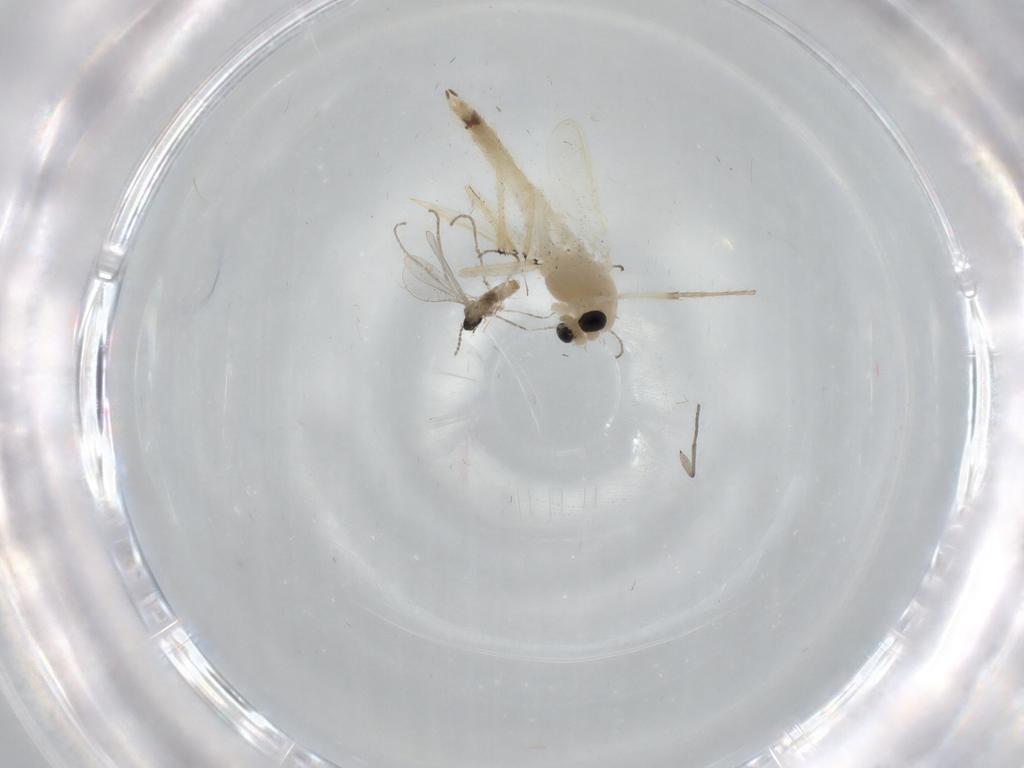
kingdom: Animalia
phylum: Arthropoda
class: Insecta
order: Diptera
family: Sciaridae
